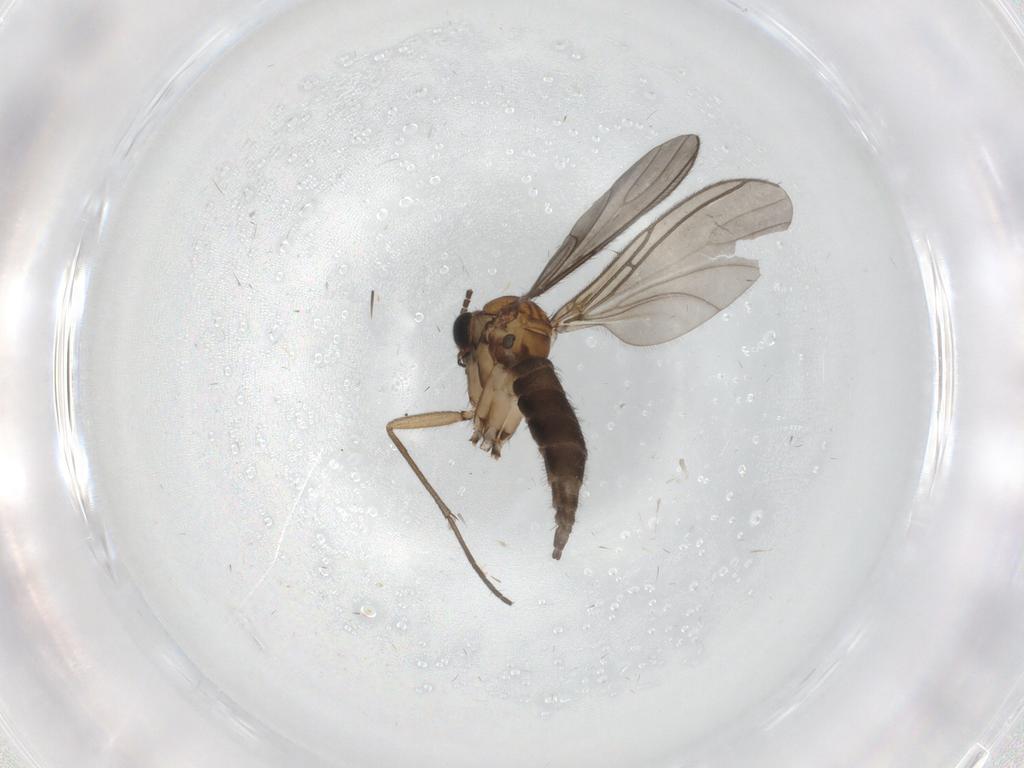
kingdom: Animalia
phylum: Arthropoda
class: Insecta
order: Diptera
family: Sciaridae
